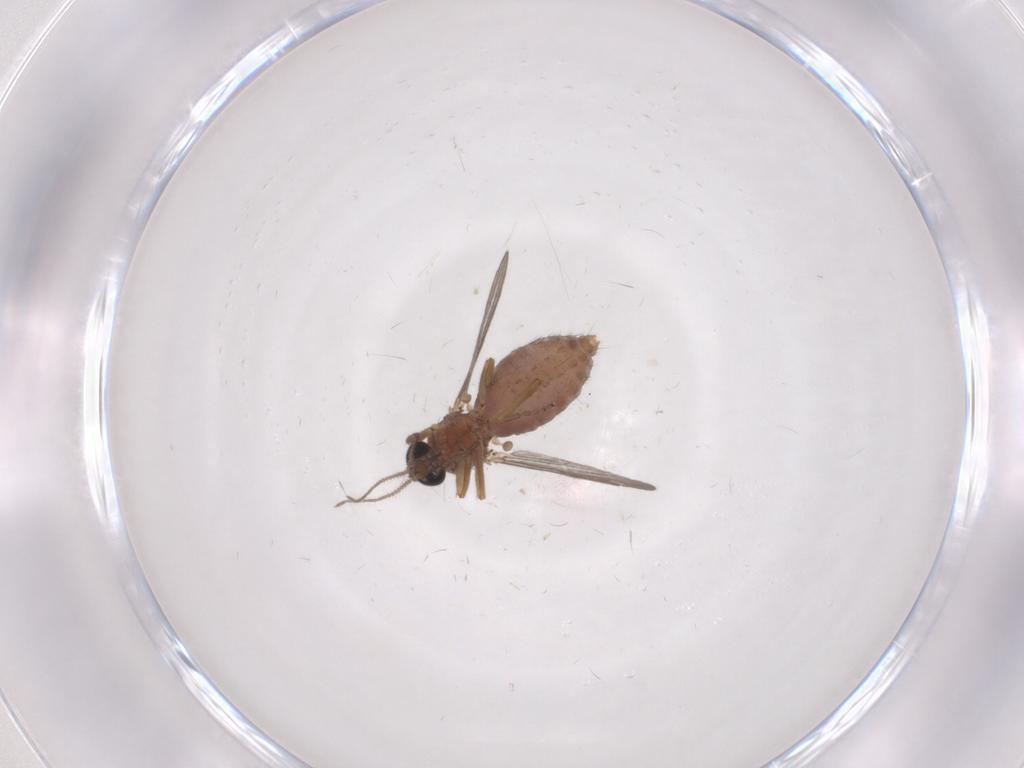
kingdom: Animalia
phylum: Arthropoda
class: Insecta
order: Diptera
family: Ceratopogonidae
